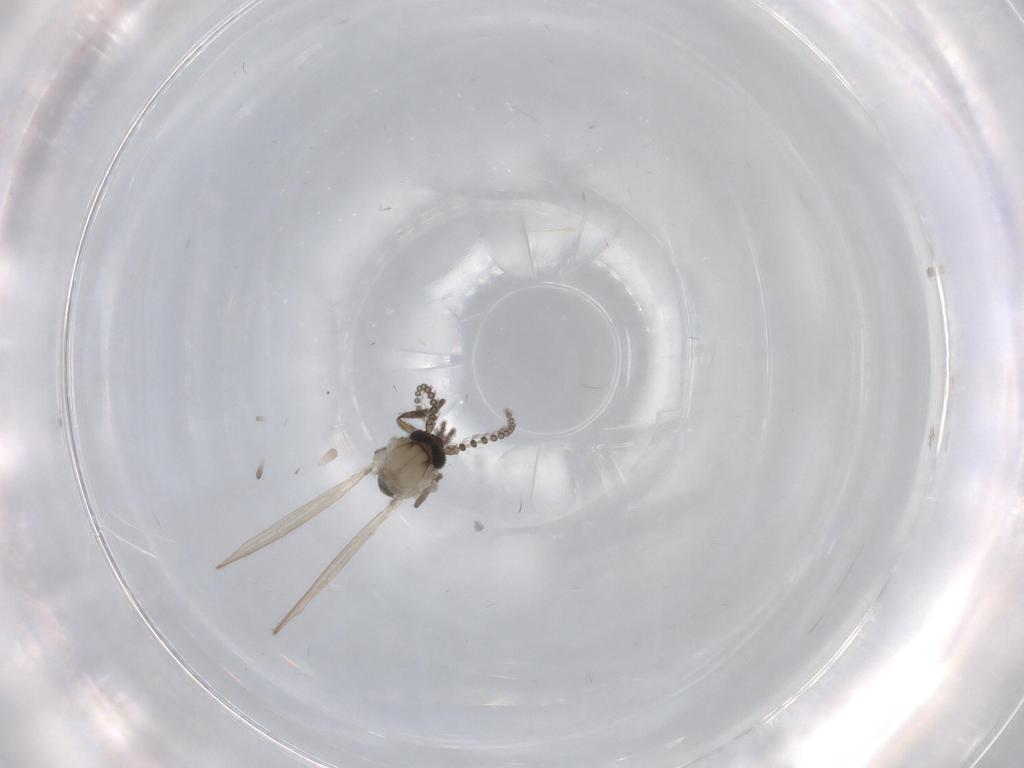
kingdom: Animalia
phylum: Arthropoda
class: Insecta
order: Diptera
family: Psychodidae
